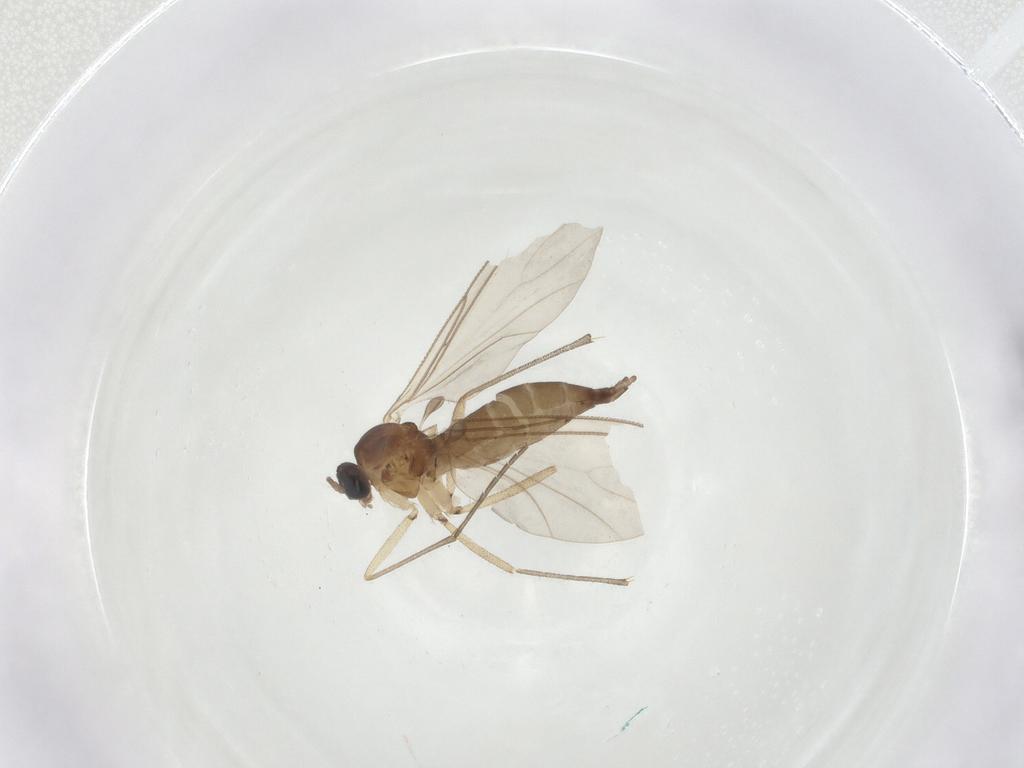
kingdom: Animalia
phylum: Arthropoda
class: Insecta
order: Diptera
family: Sciaridae
